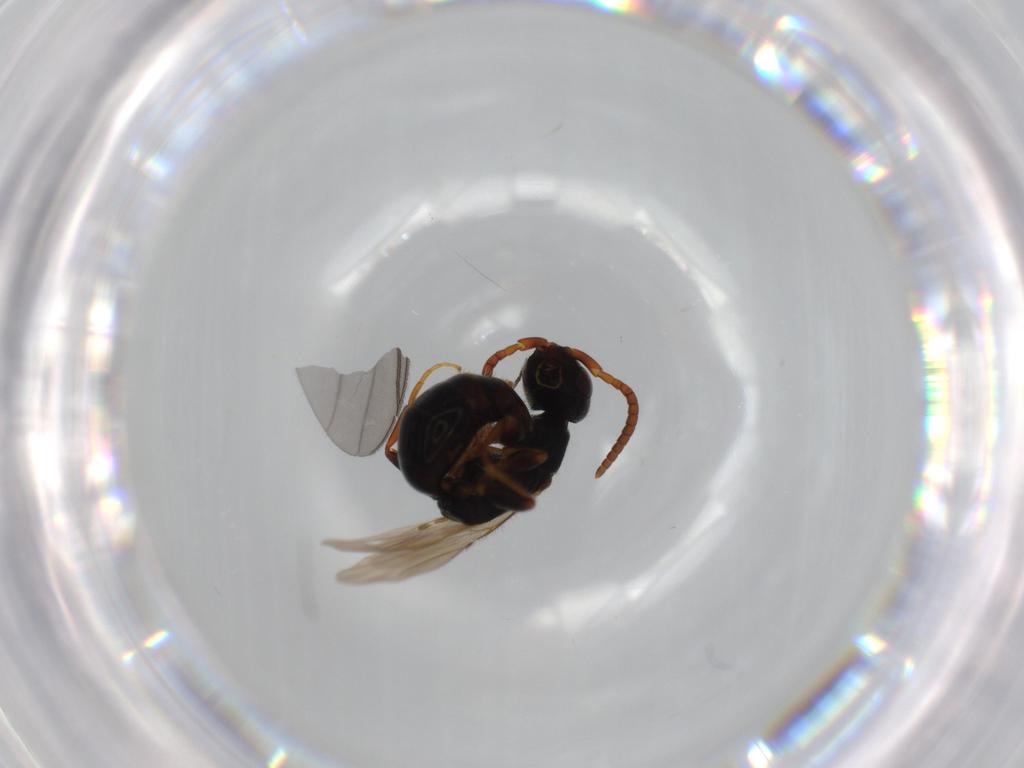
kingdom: Animalia
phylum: Arthropoda
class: Insecta
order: Hymenoptera
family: Bethylidae
